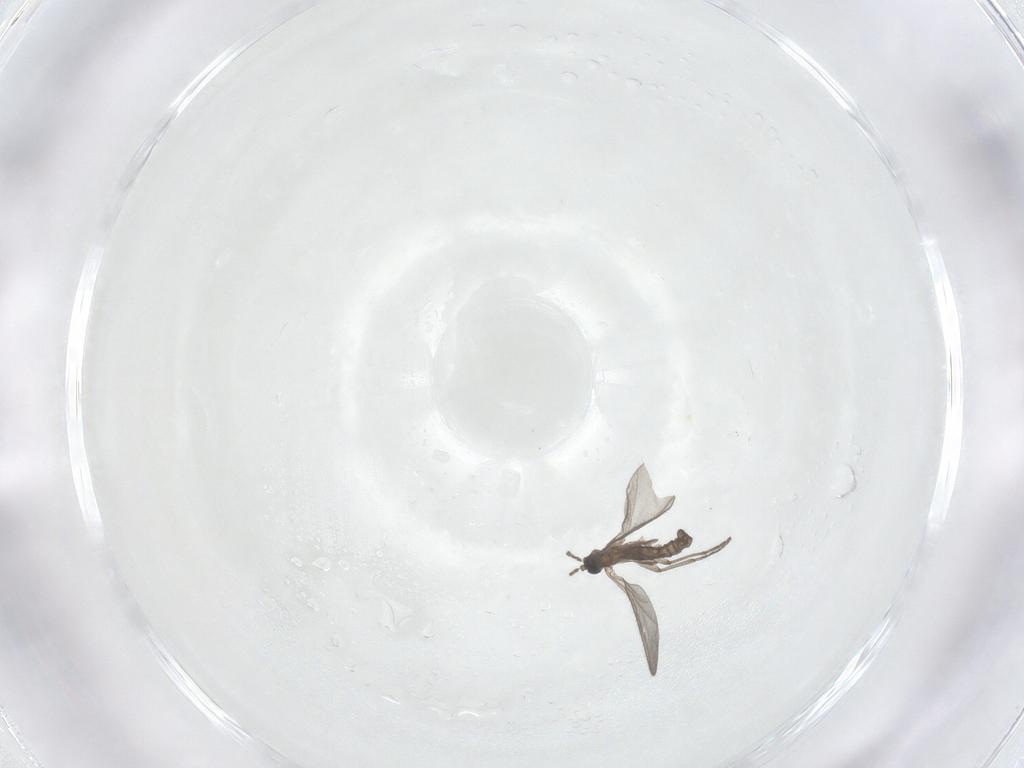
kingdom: Animalia
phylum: Arthropoda
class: Insecta
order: Diptera
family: Sciaridae
